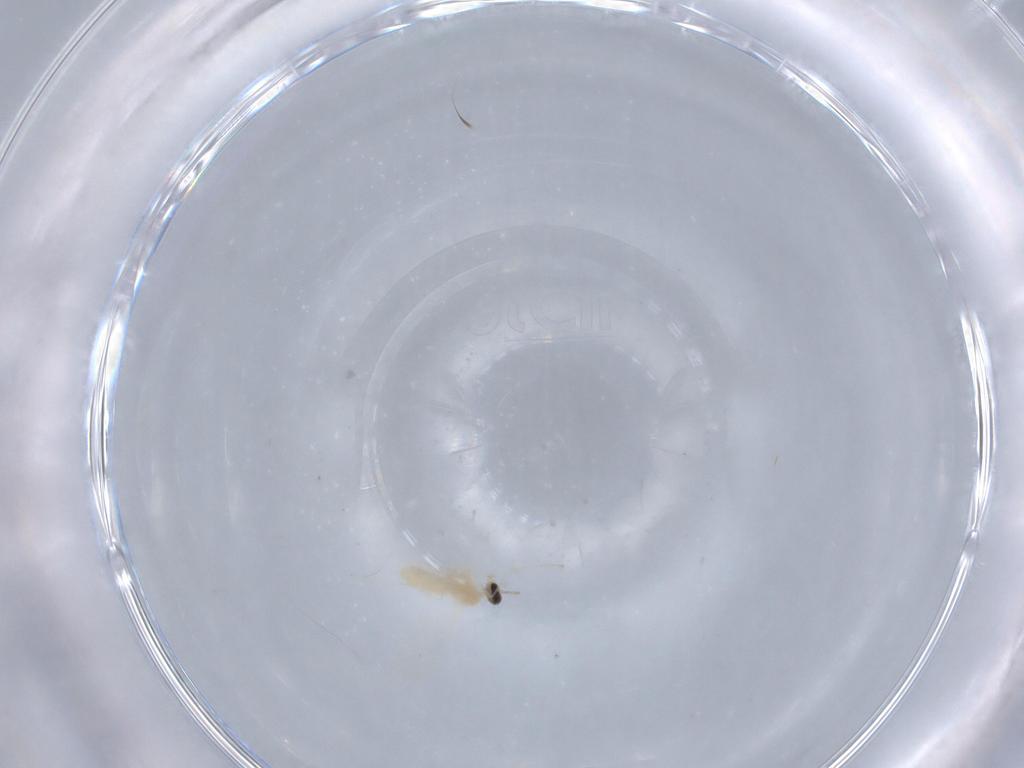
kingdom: Animalia
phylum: Arthropoda
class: Insecta
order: Diptera
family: Cecidomyiidae
